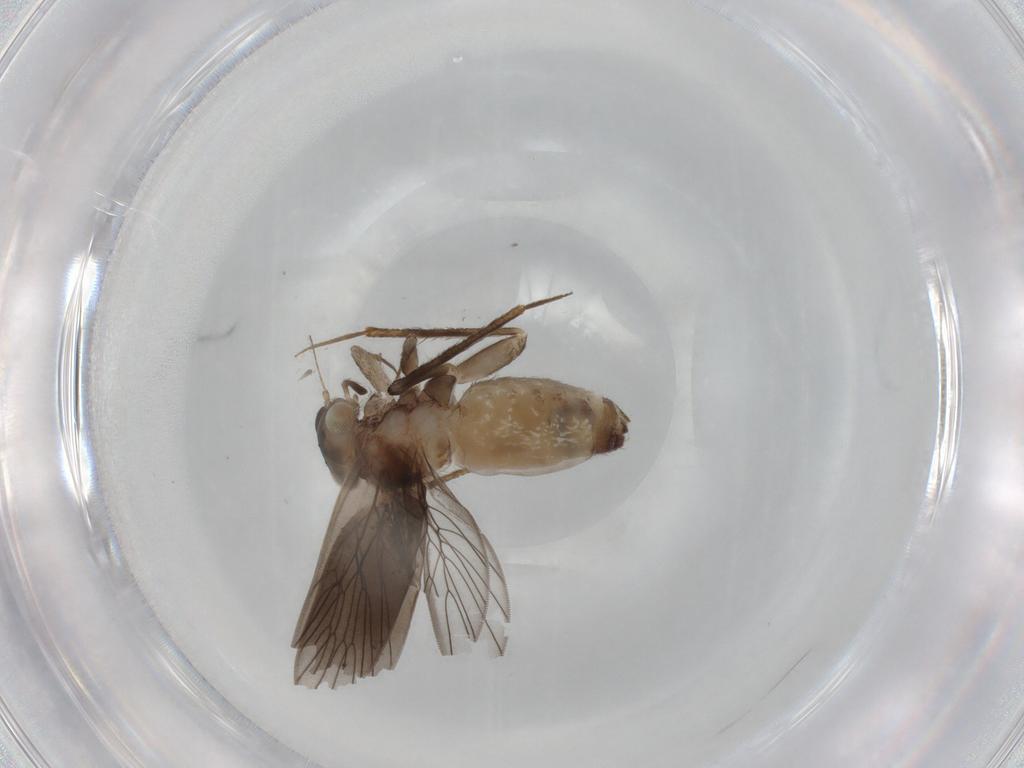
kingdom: Animalia
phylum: Arthropoda
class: Insecta
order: Psocodea
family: Lepidopsocidae
